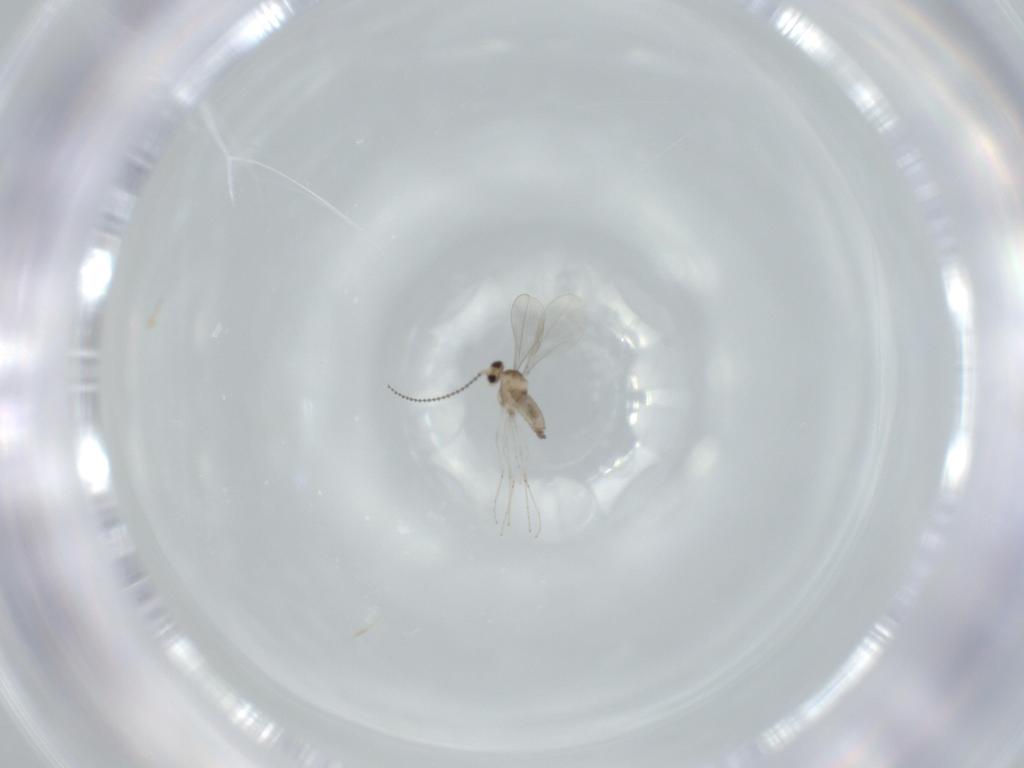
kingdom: Animalia
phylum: Arthropoda
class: Insecta
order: Diptera
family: Cecidomyiidae
